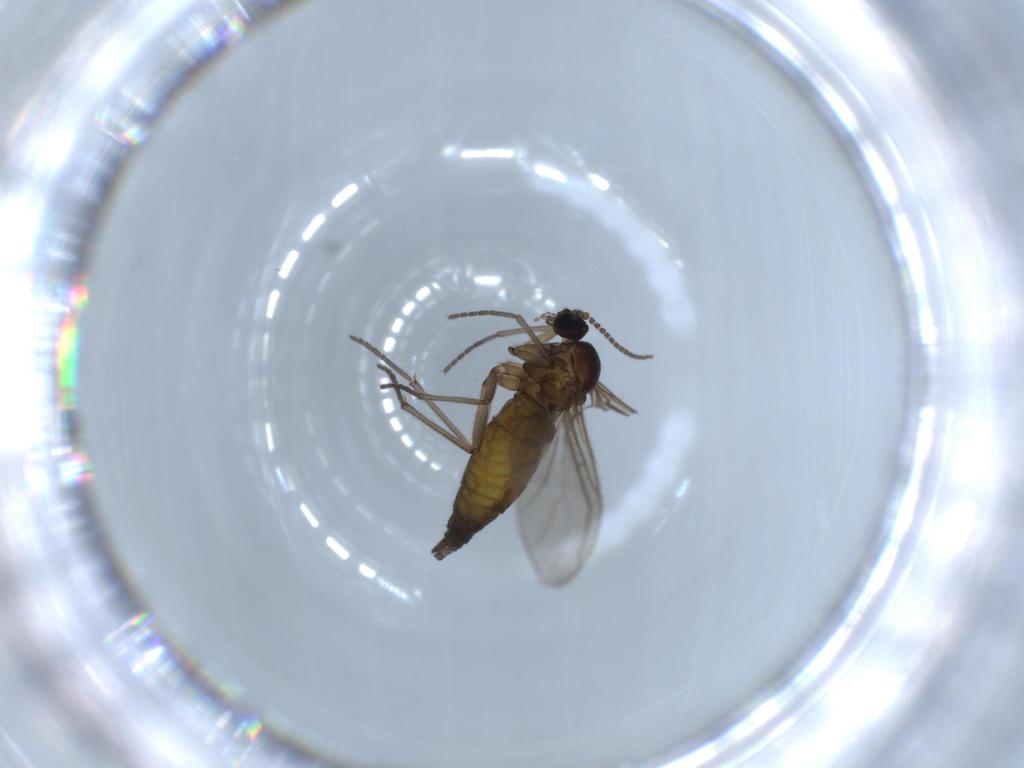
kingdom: Animalia
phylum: Arthropoda
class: Insecta
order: Diptera
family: Sciaridae
